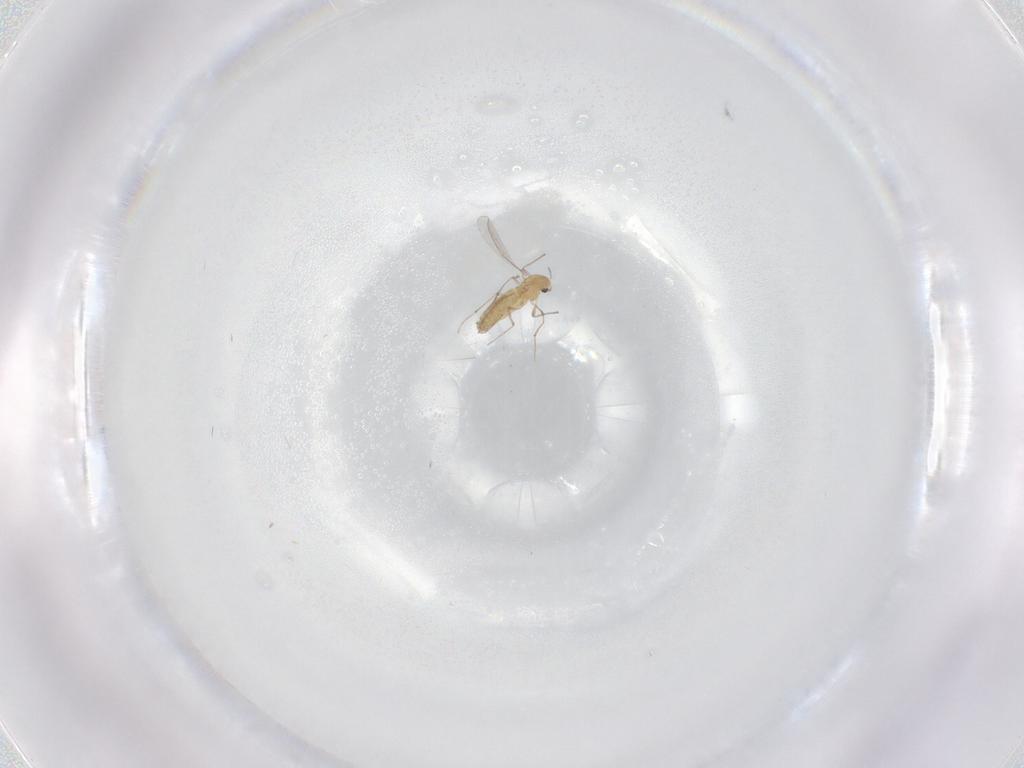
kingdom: Animalia
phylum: Arthropoda
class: Insecta
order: Diptera
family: Chironomidae
